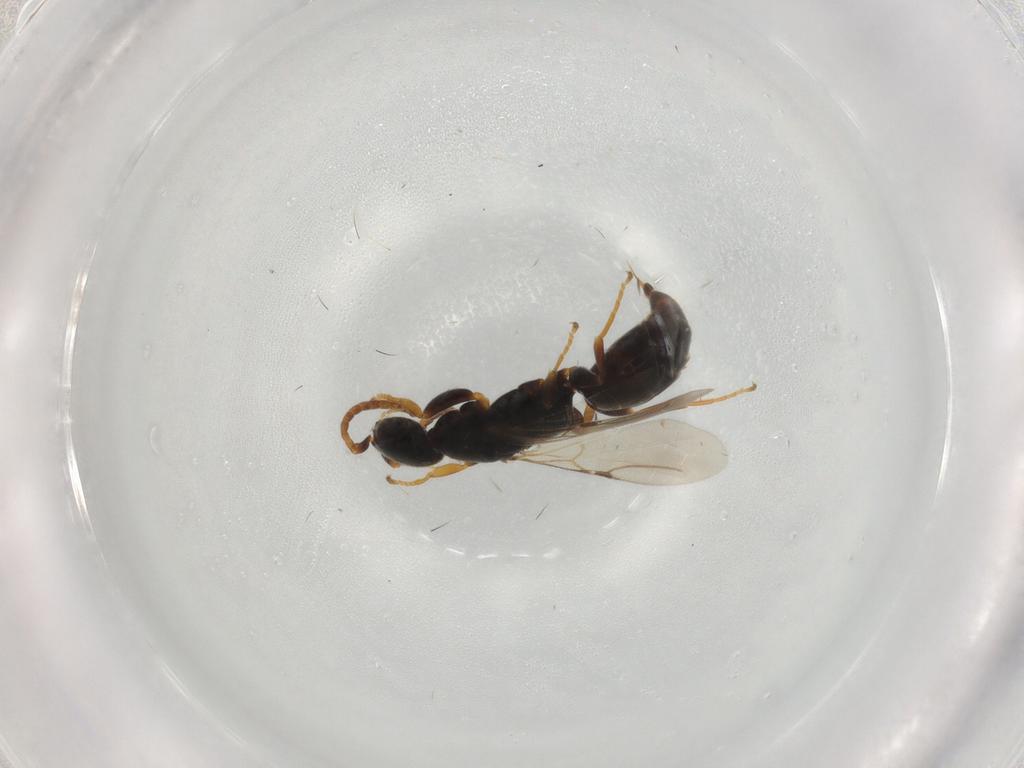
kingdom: Animalia
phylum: Arthropoda
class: Insecta
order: Hymenoptera
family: Bethylidae
